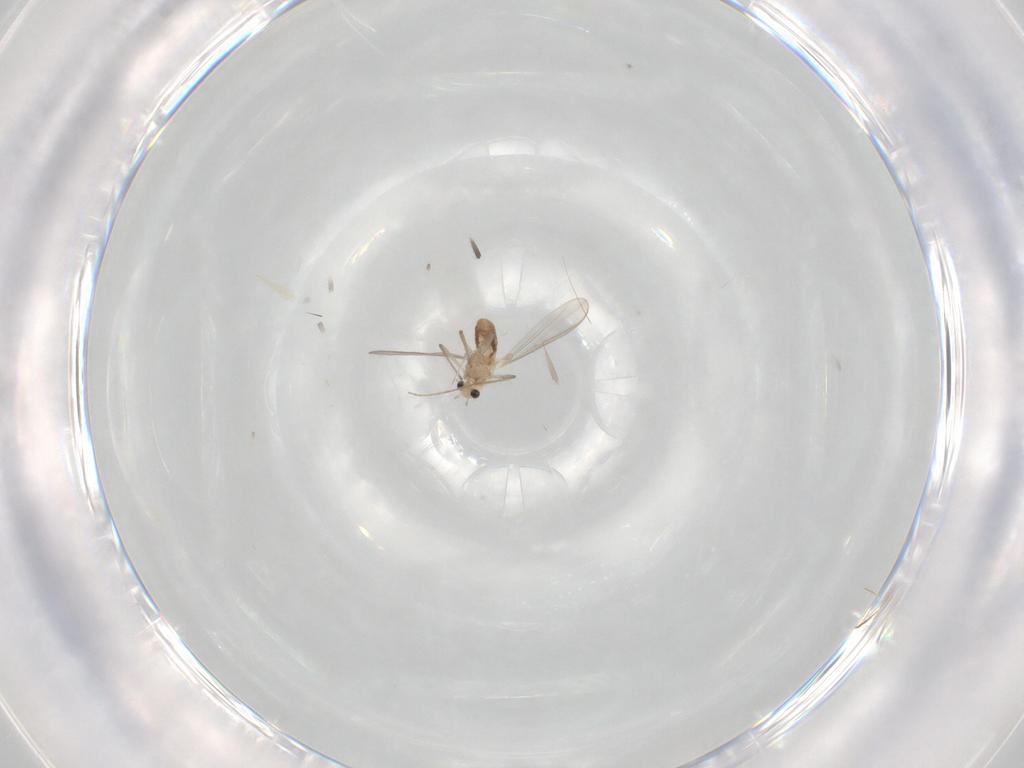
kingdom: Animalia
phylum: Arthropoda
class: Insecta
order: Diptera
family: Chironomidae
